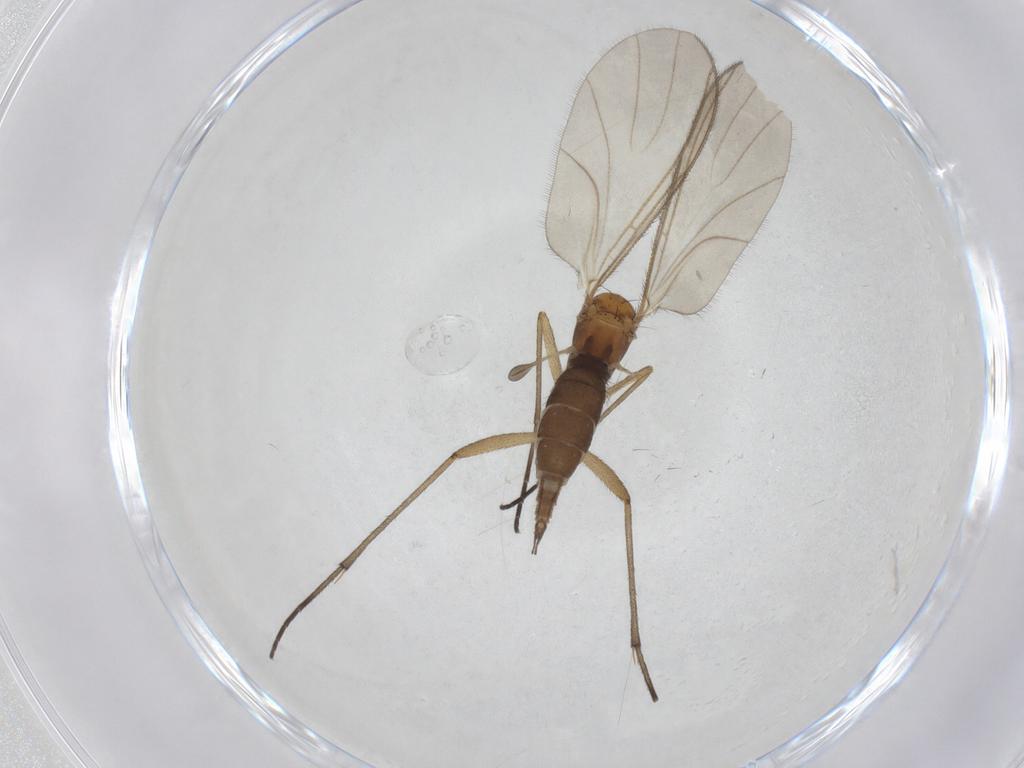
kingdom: Animalia
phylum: Arthropoda
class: Insecta
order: Diptera
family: Sciaridae
